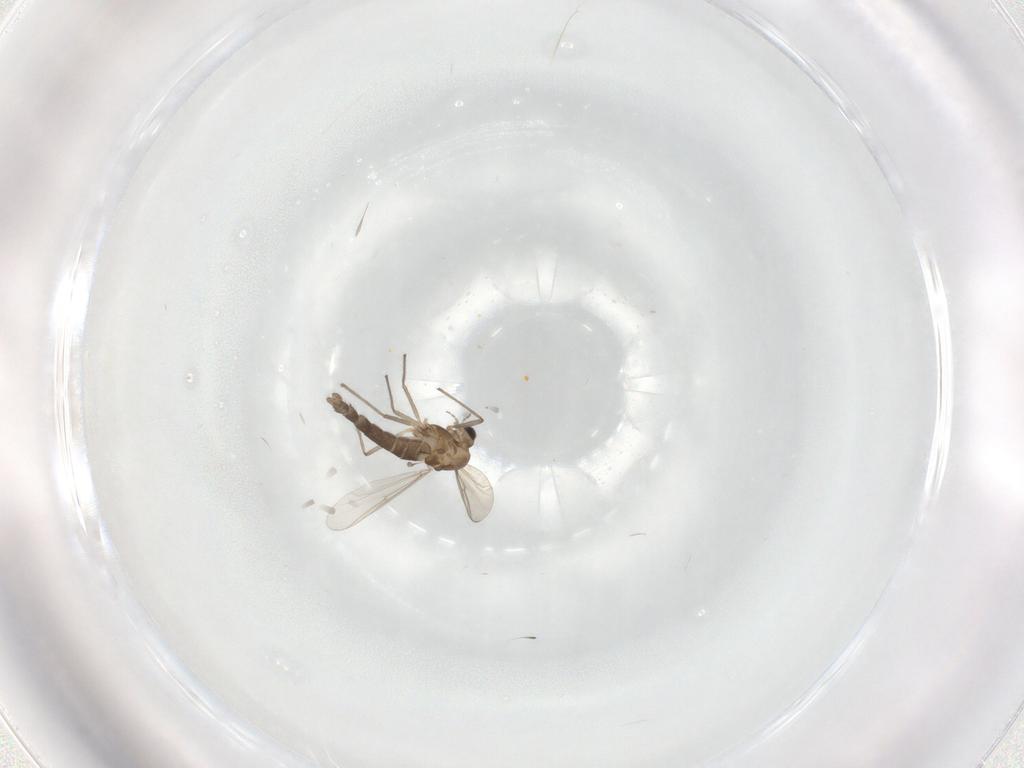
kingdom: Animalia
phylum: Arthropoda
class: Insecta
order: Diptera
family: Chironomidae
